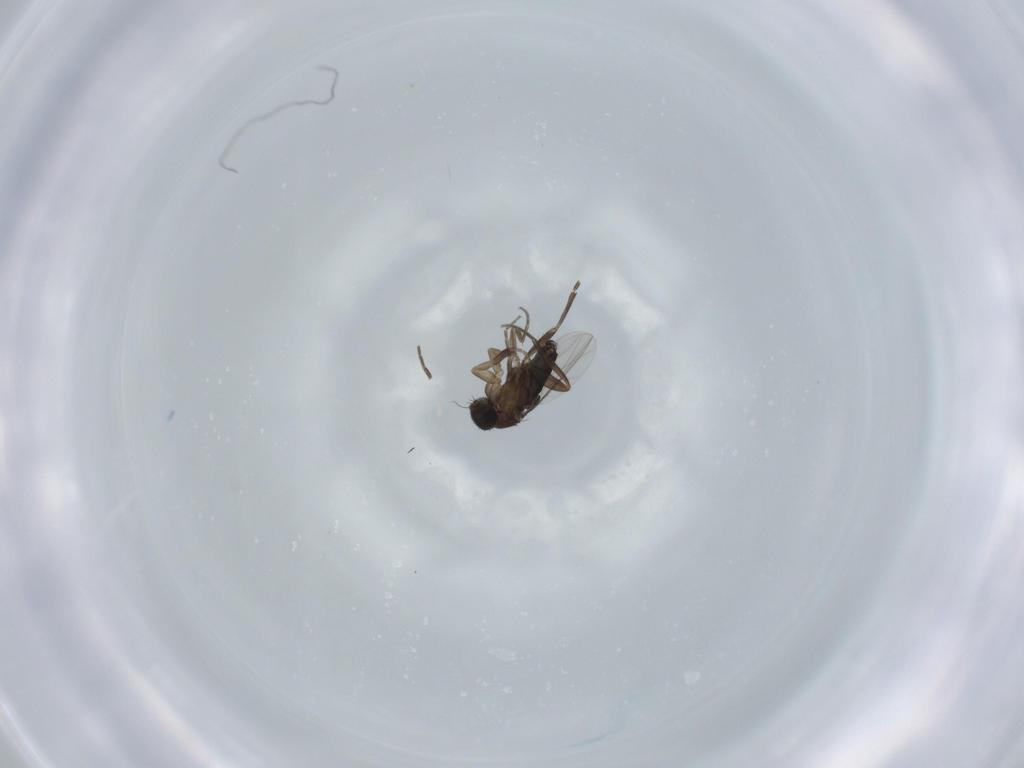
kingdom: Animalia
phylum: Arthropoda
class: Insecta
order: Diptera
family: Phoridae
